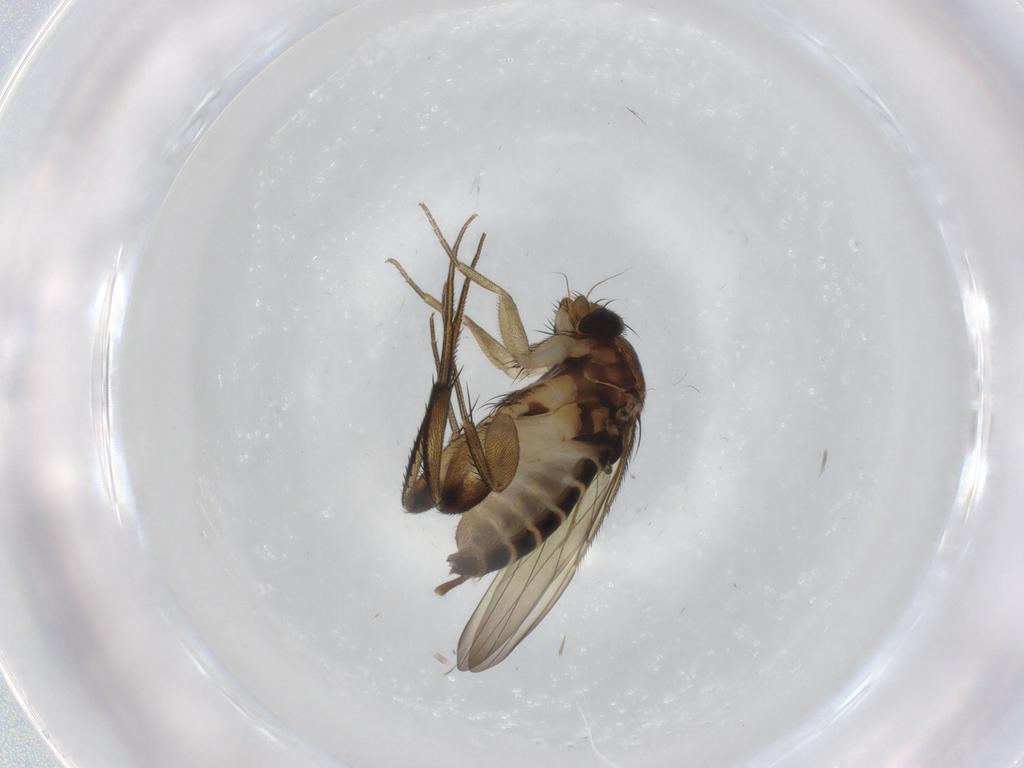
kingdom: Animalia
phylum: Arthropoda
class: Insecta
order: Diptera
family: Phoridae
